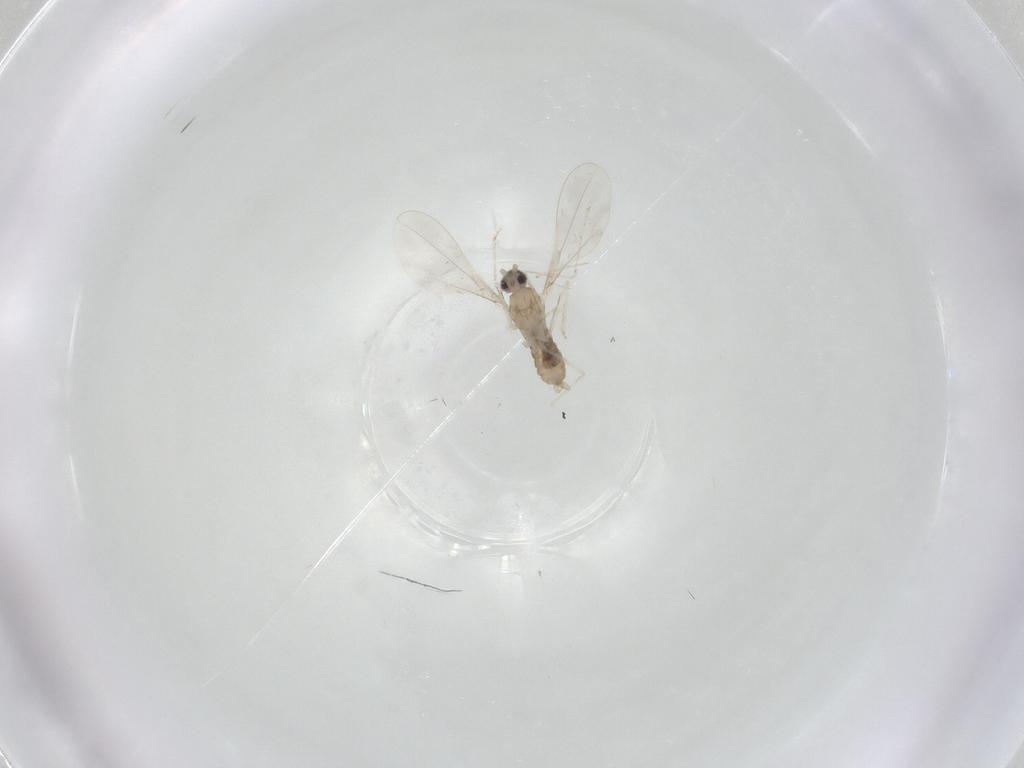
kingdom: Animalia
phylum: Arthropoda
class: Insecta
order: Diptera
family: Cecidomyiidae
